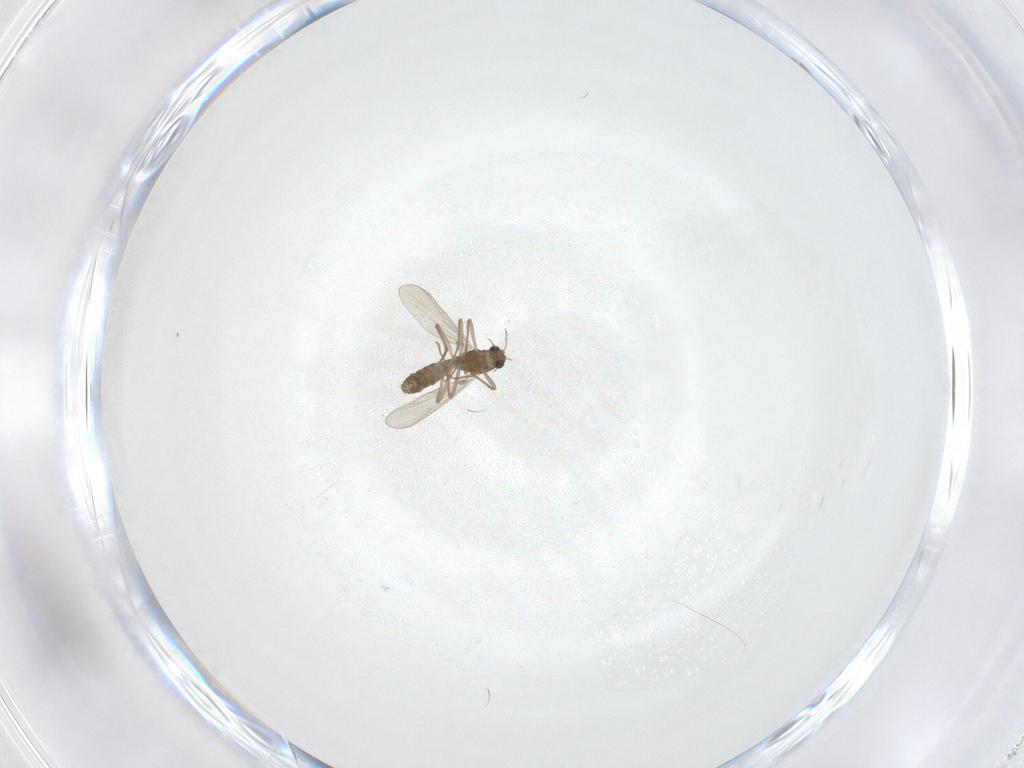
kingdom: Animalia
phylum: Arthropoda
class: Insecta
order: Diptera
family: Chironomidae
